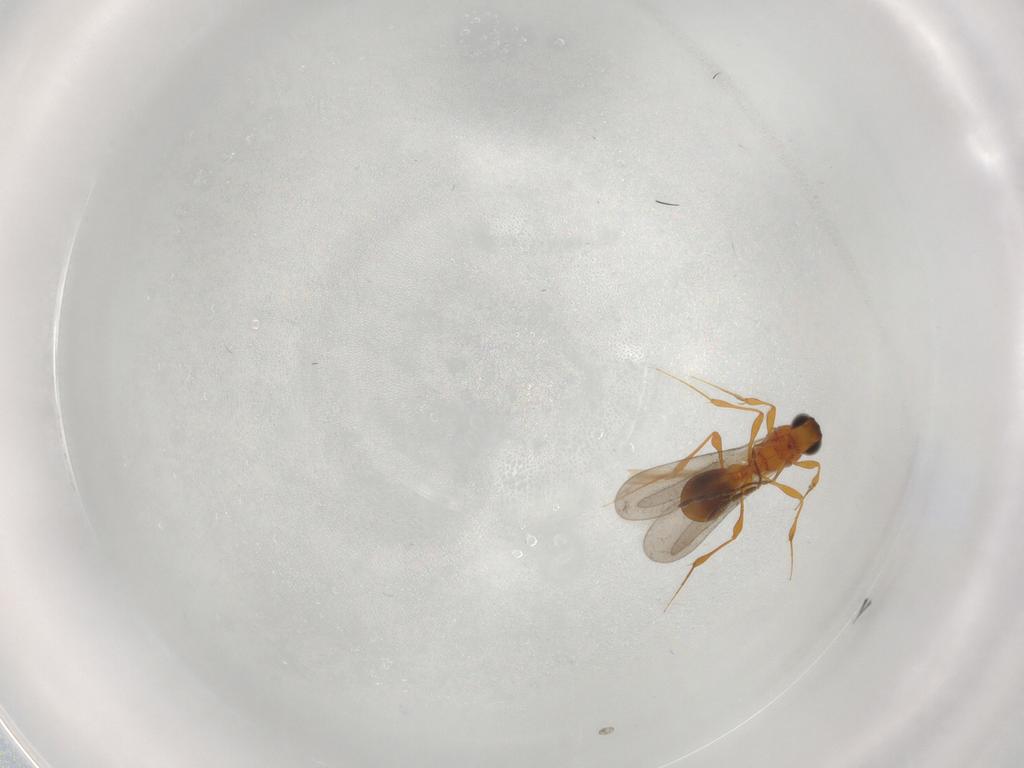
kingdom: Animalia
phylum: Arthropoda
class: Insecta
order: Hymenoptera
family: Platygastridae
